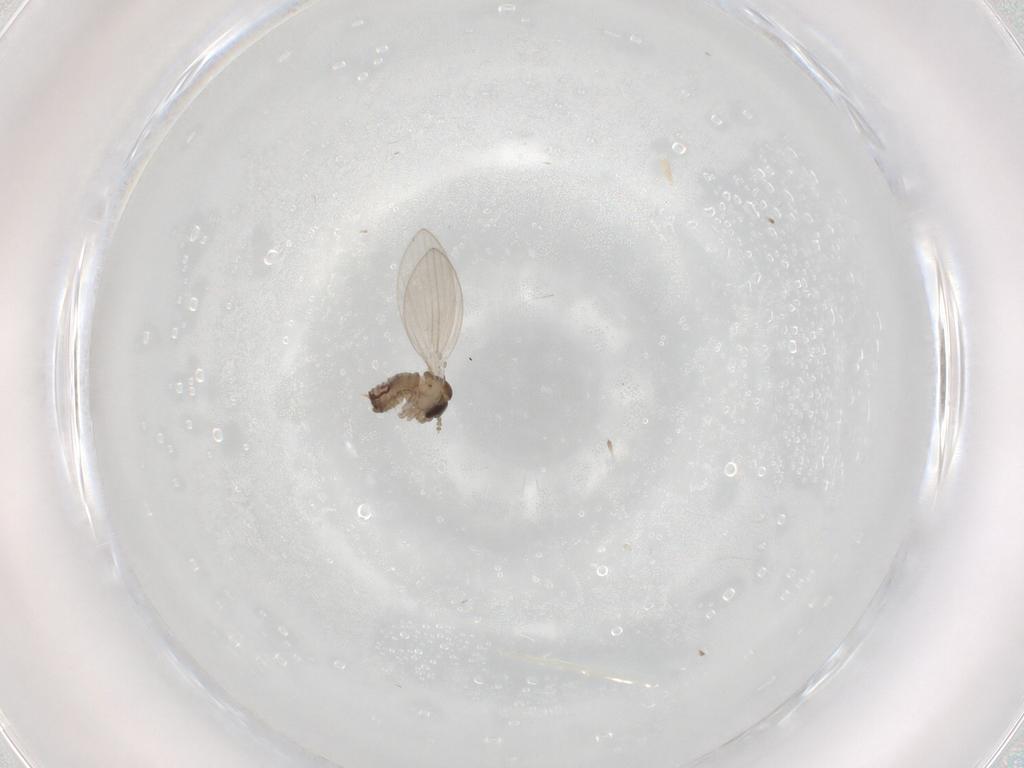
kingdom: Animalia
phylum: Arthropoda
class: Insecta
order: Diptera
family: Psychodidae
